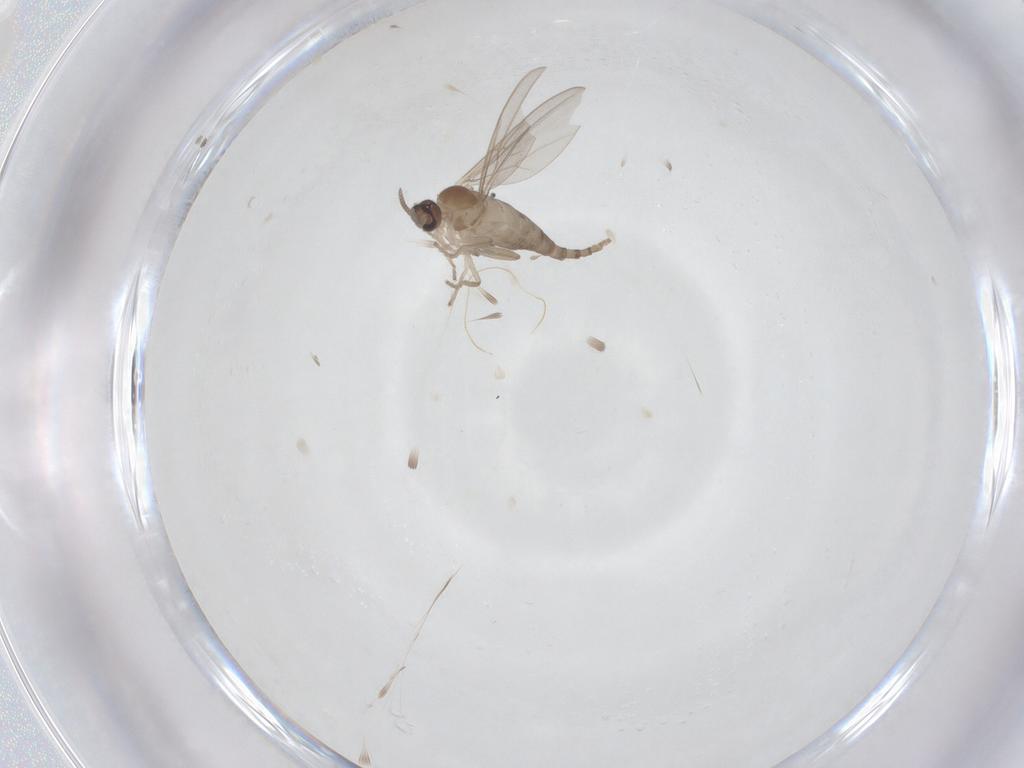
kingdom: Animalia
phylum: Arthropoda
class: Insecta
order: Diptera
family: Cecidomyiidae
